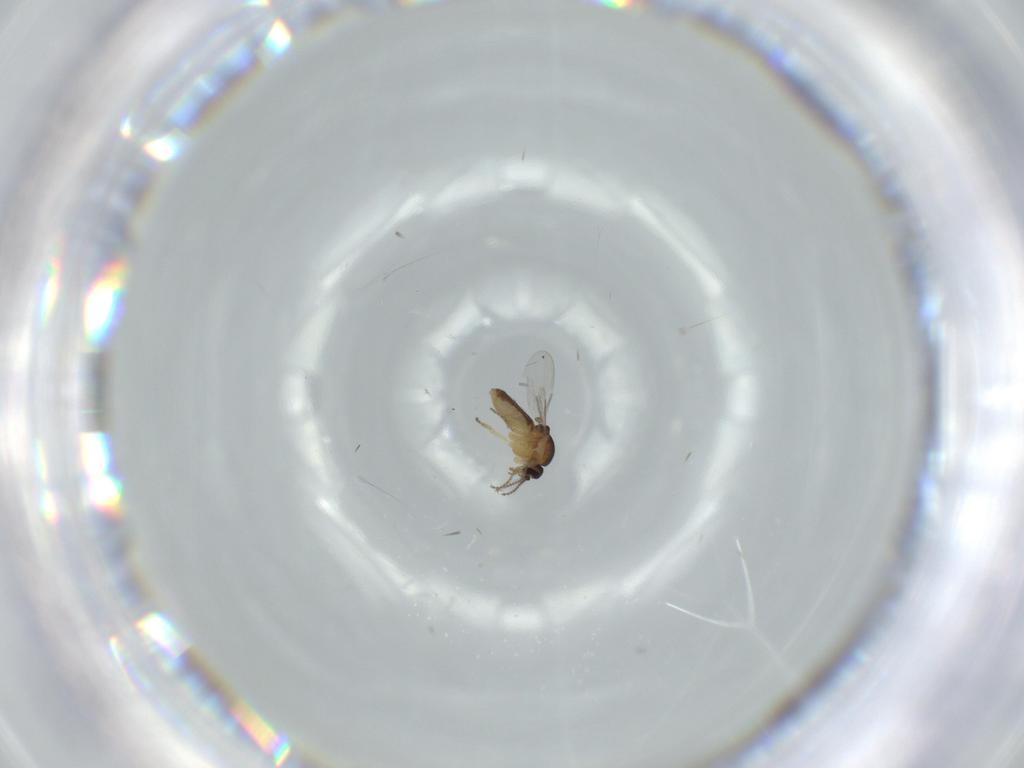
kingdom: Animalia
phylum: Arthropoda
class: Insecta
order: Diptera
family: Ceratopogonidae
